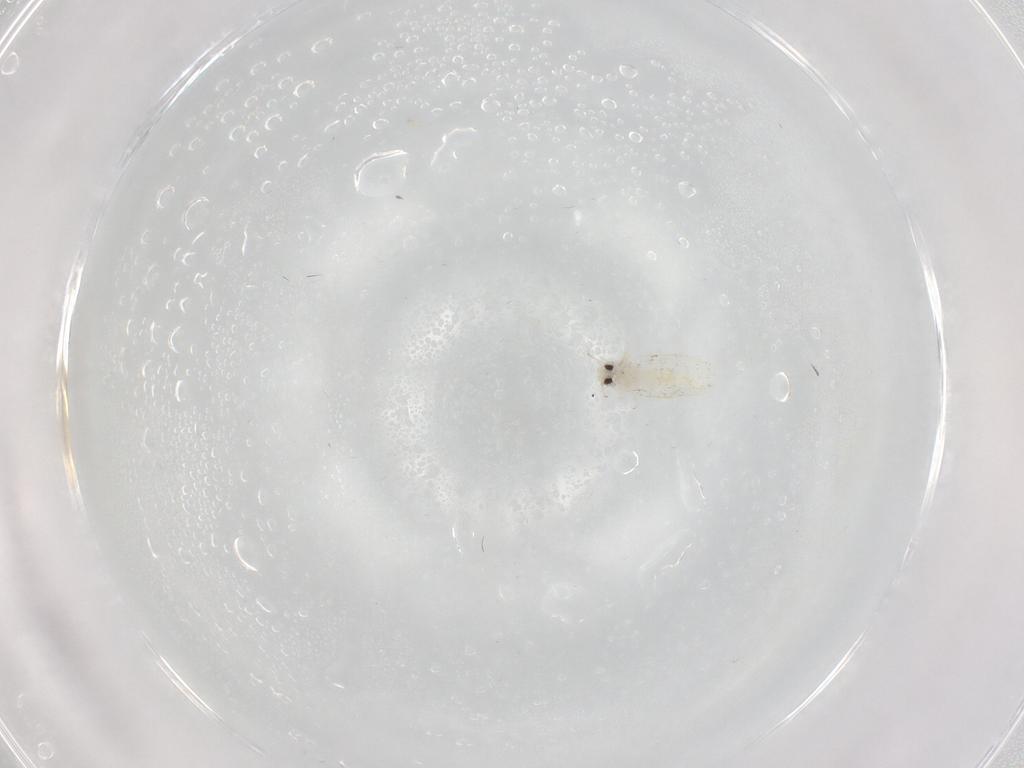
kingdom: Animalia
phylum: Arthropoda
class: Insecta
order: Hemiptera
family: Aleyrodidae
